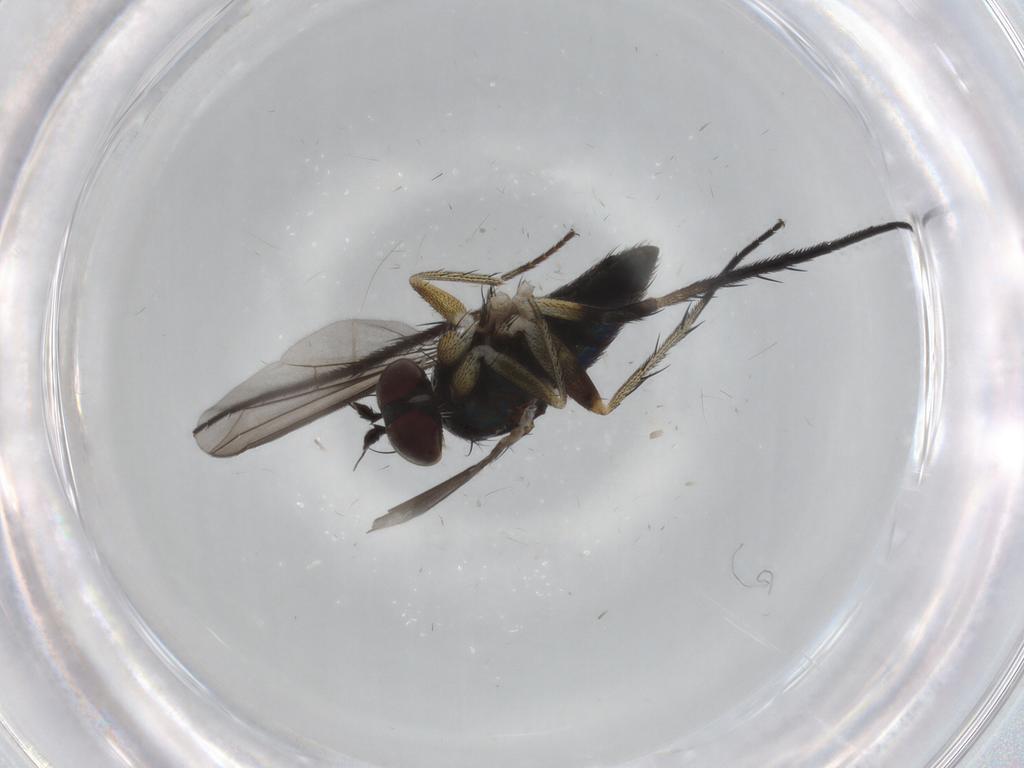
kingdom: Animalia
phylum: Arthropoda
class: Insecta
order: Diptera
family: Dolichopodidae
